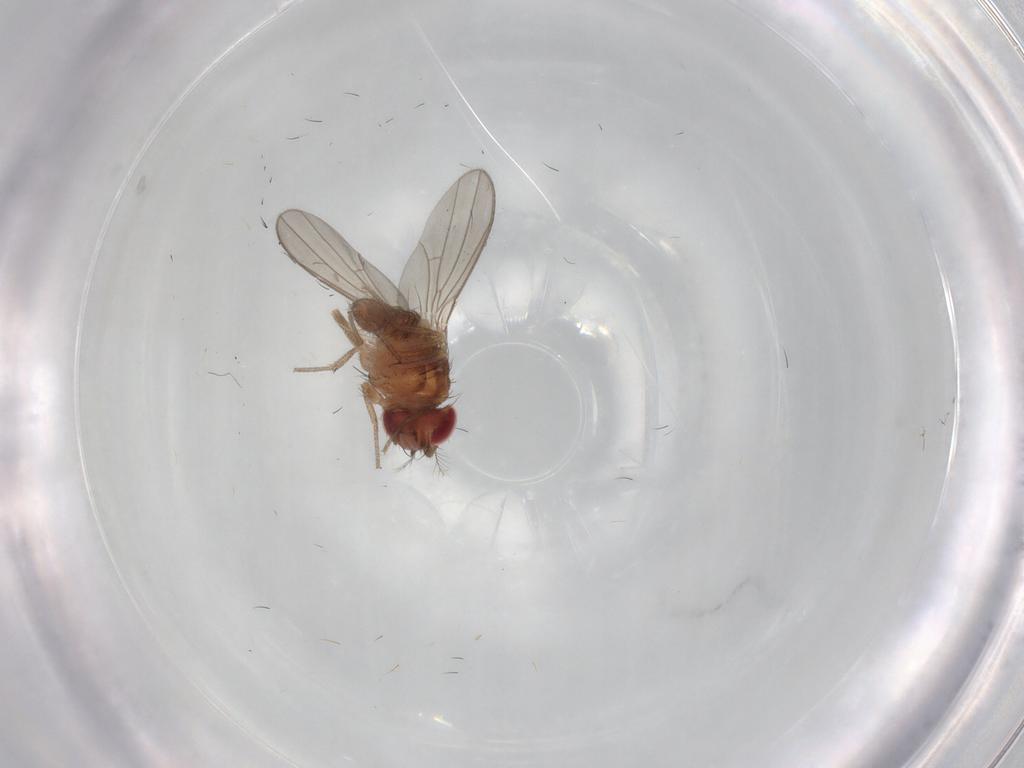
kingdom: Animalia
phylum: Arthropoda
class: Insecta
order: Diptera
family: Drosophilidae
